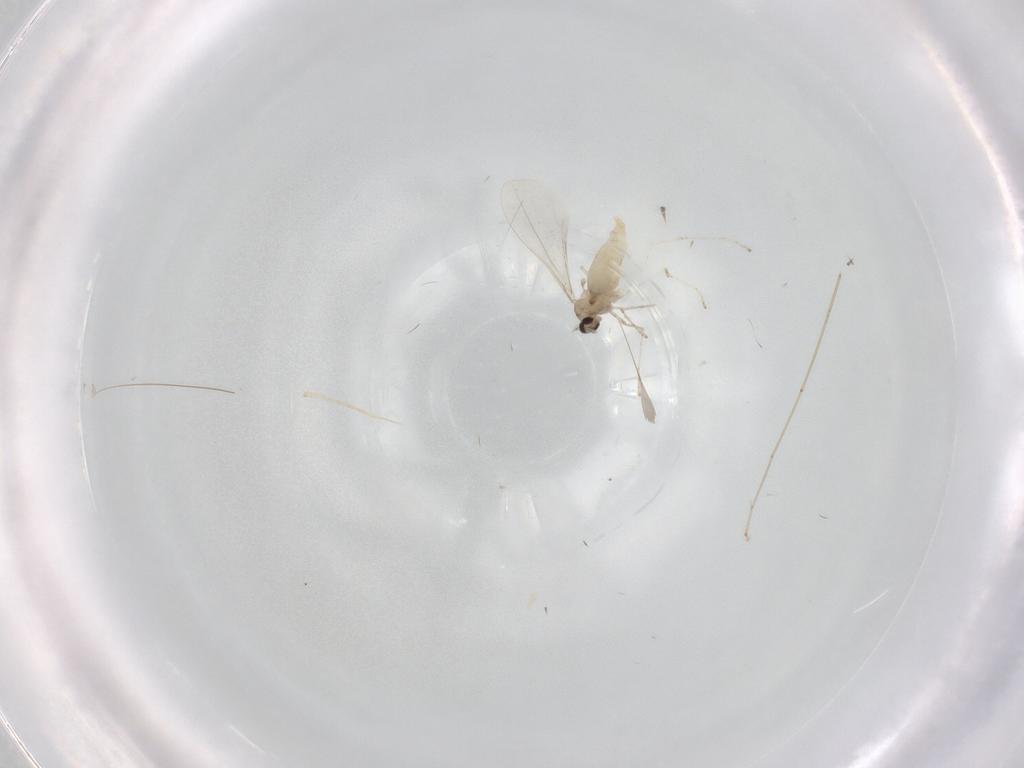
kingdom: Animalia
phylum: Arthropoda
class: Insecta
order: Diptera
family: Cecidomyiidae
